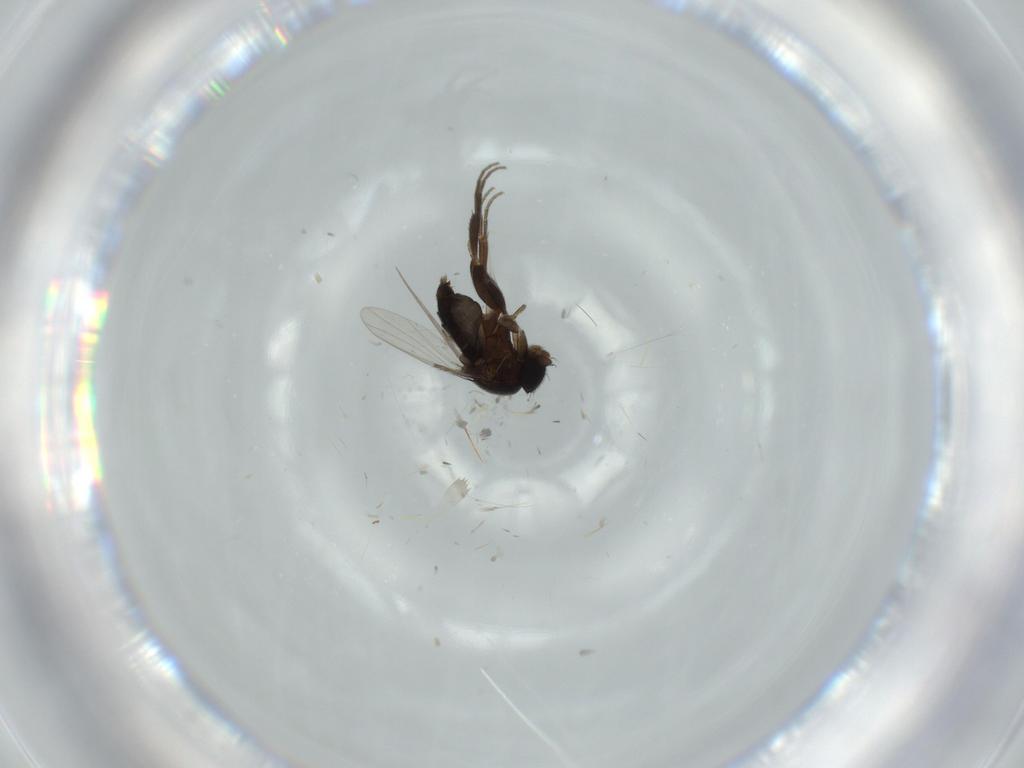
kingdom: Animalia
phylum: Arthropoda
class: Insecta
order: Diptera
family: Phoridae
